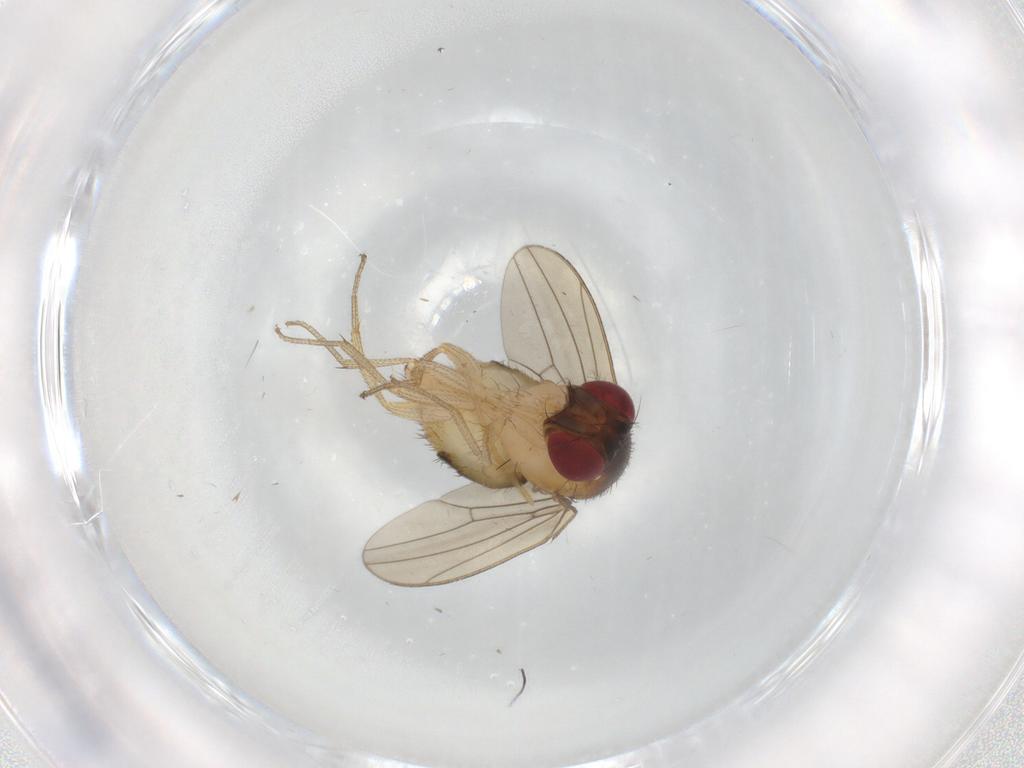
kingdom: Animalia
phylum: Arthropoda
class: Insecta
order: Diptera
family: Drosophilidae
